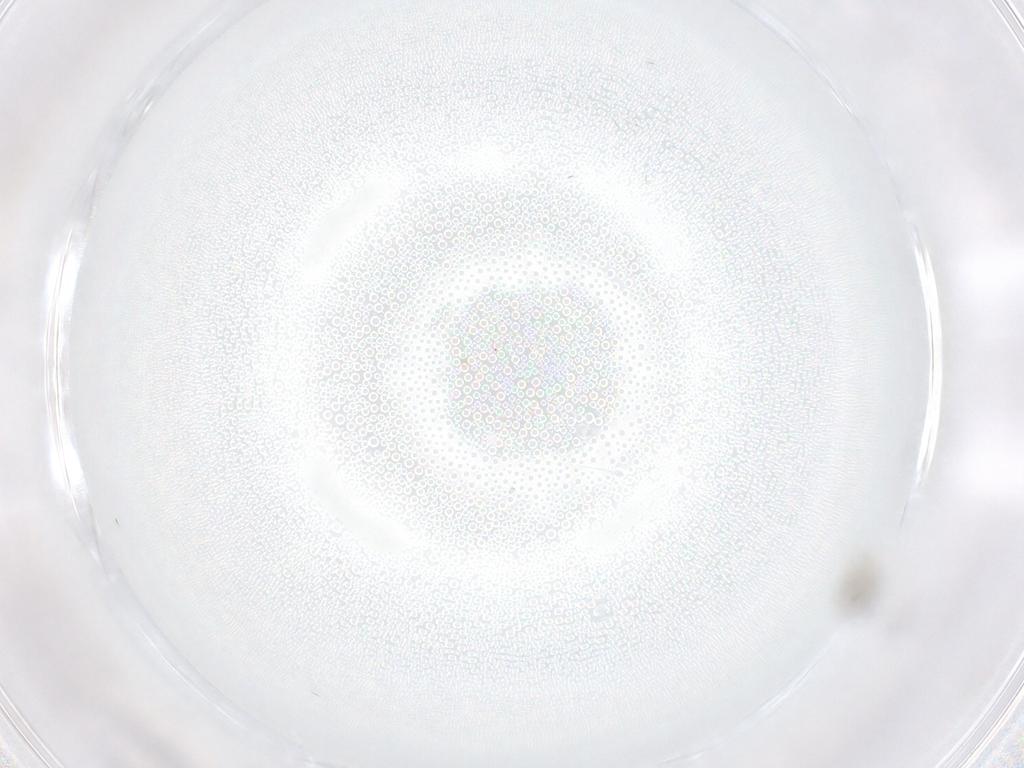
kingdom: Animalia
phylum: Arthropoda
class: Insecta
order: Diptera
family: Cecidomyiidae
